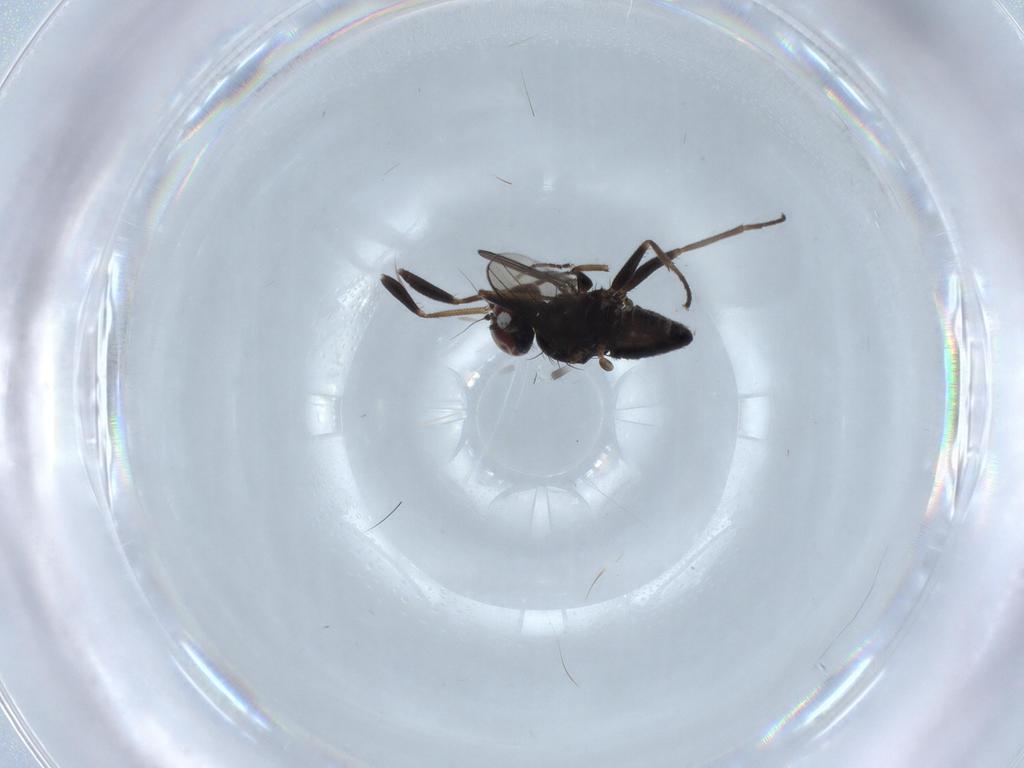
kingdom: Animalia
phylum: Arthropoda
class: Insecta
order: Diptera
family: Dolichopodidae
